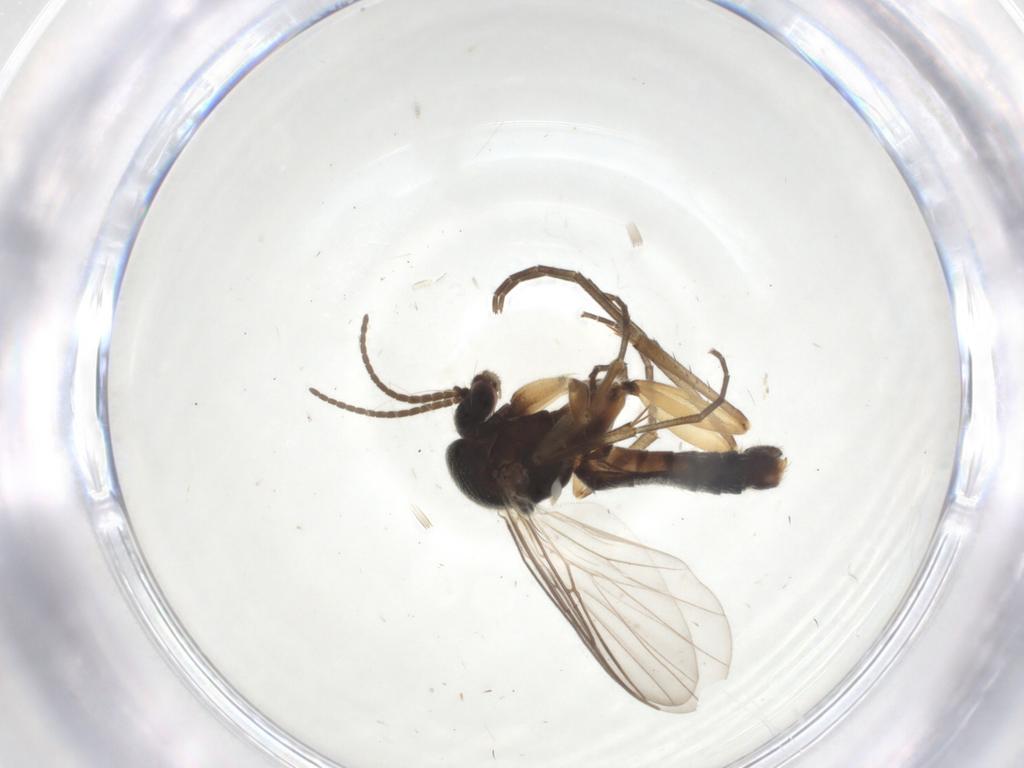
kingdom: Animalia
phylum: Arthropoda
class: Insecta
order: Diptera
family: Mycetophilidae
